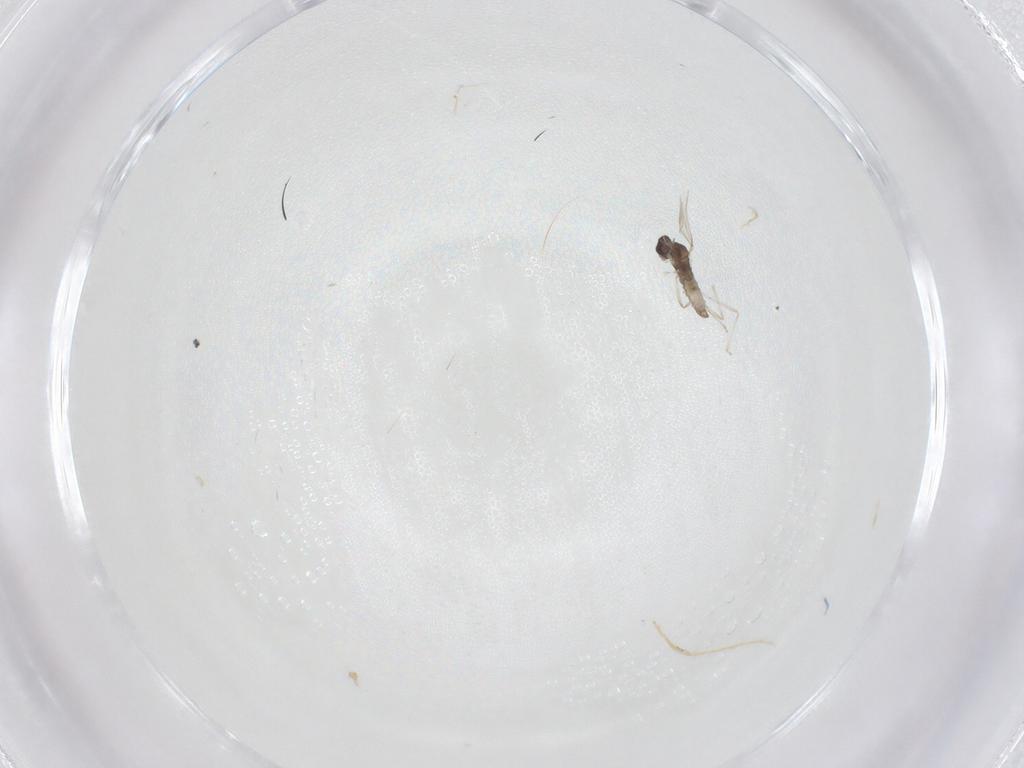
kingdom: Animalia
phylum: Arthropoda
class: Insecta
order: Diptera
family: Cecidomyiidae
